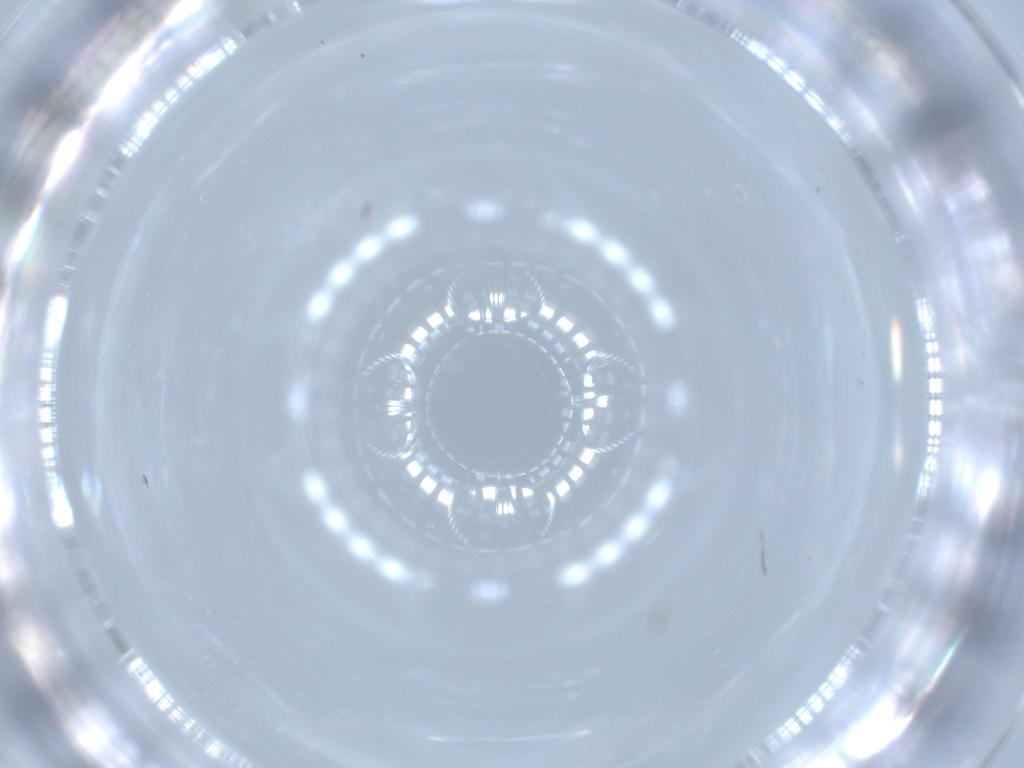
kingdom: Animalia
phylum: Arthropoda
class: Insecta
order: Diptera
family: Cecidomyiidae
